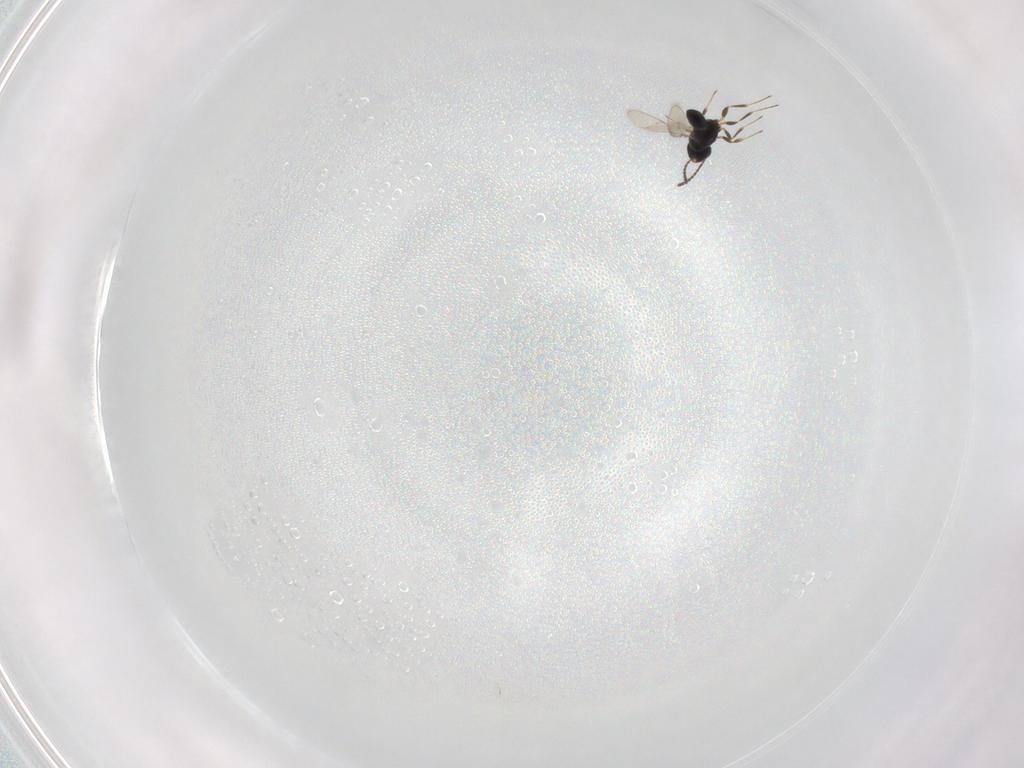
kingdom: Animalia
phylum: Arthropoda
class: Insecta
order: Hymenoptera
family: Scelionidae
